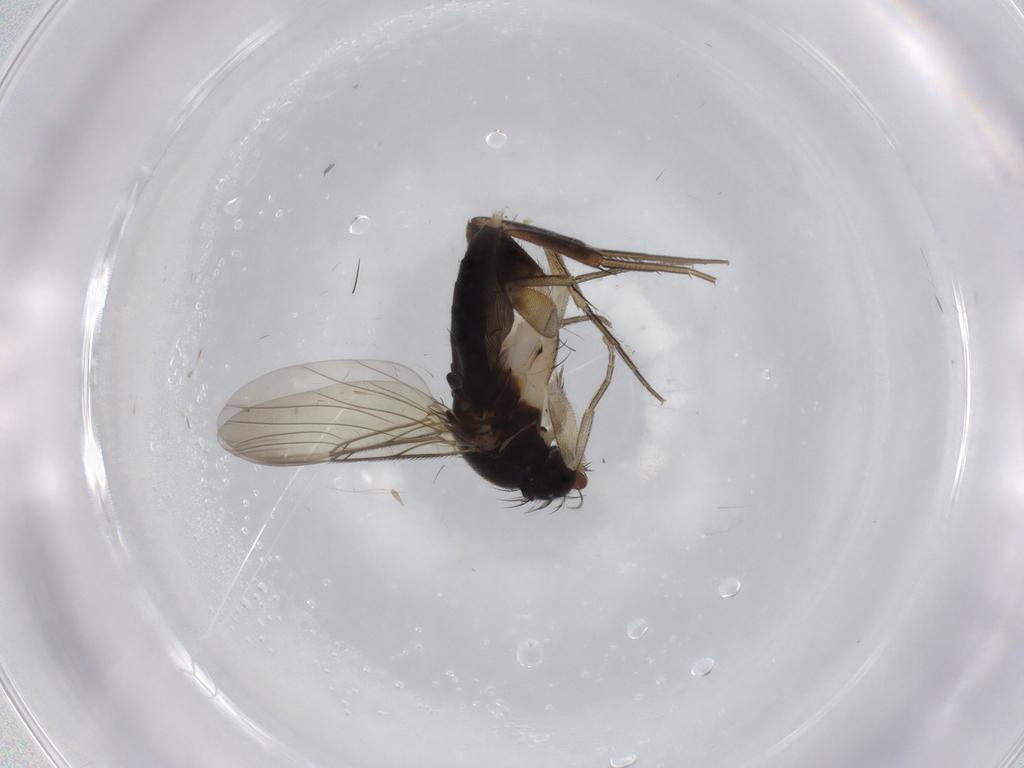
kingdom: Animalia
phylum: Arthropoda
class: Insecta
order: Diptera
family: Phoridae
